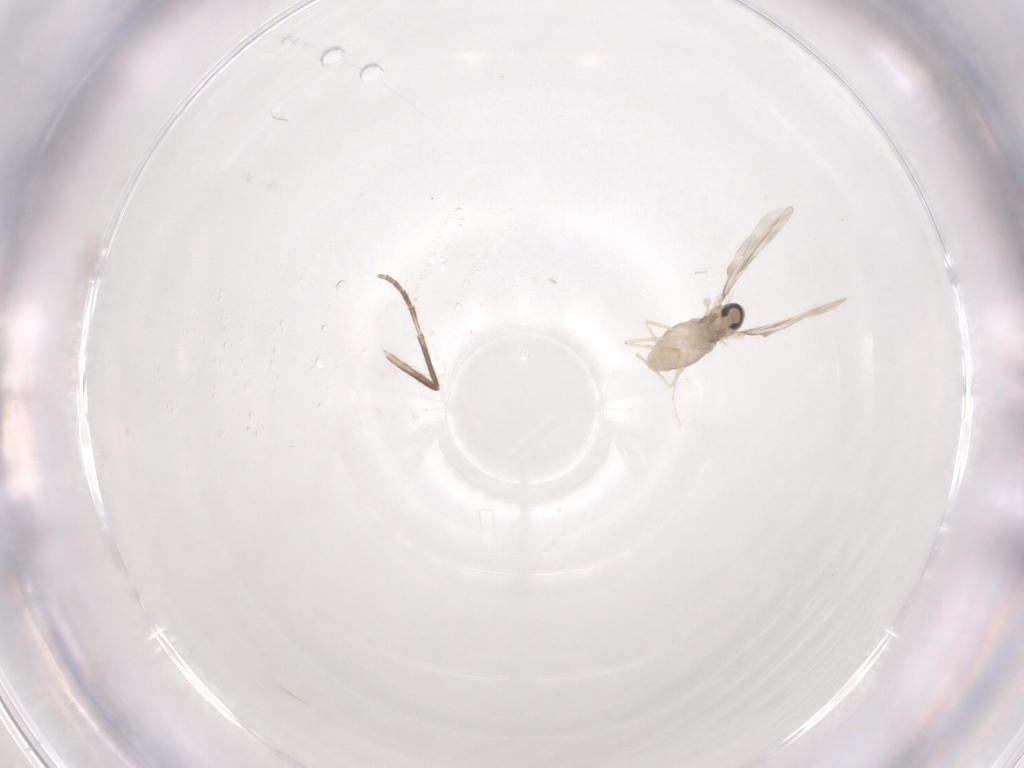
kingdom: Animalia
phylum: Arthropoda
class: Insecta
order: Diptera
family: Psychodidae
